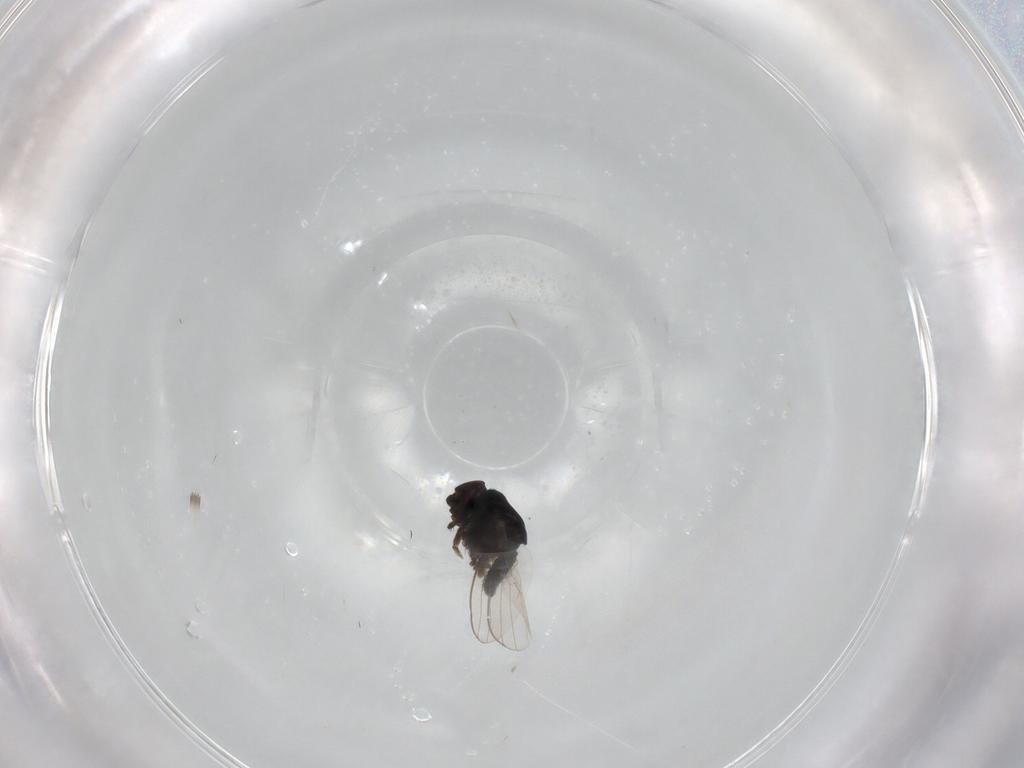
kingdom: Animalia
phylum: Arthropoda
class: Insecta
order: Diptera
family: Milichiidae
